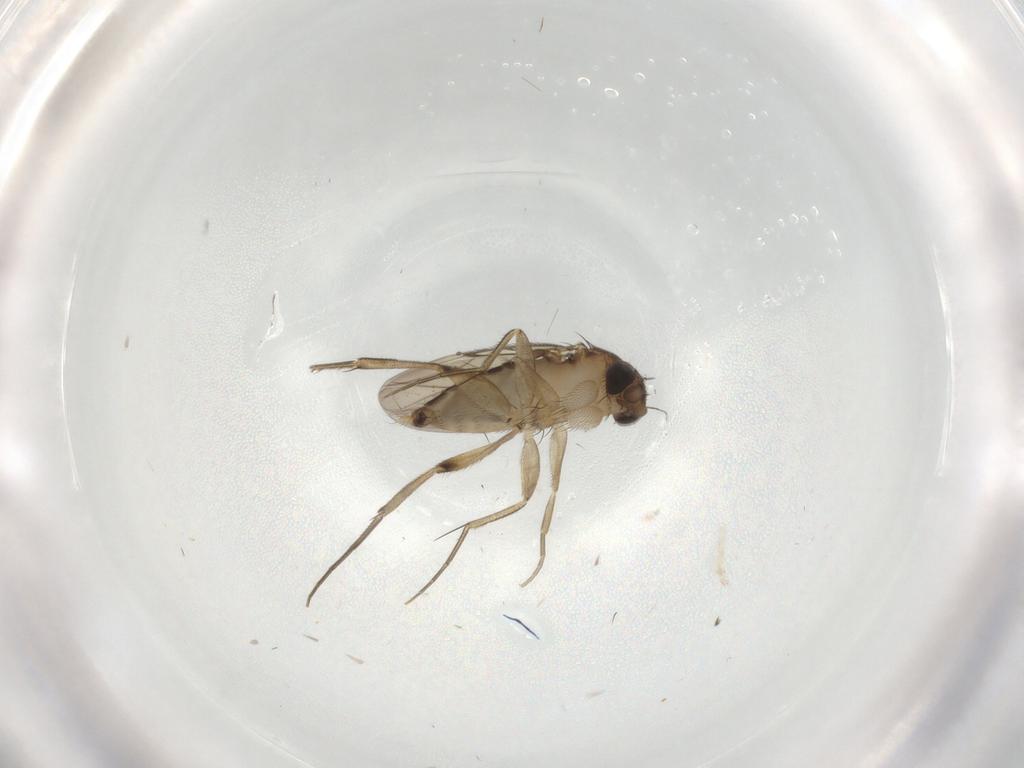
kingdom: Animalia
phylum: Arthropoda
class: Insecta
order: Diptera
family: Phoridae
